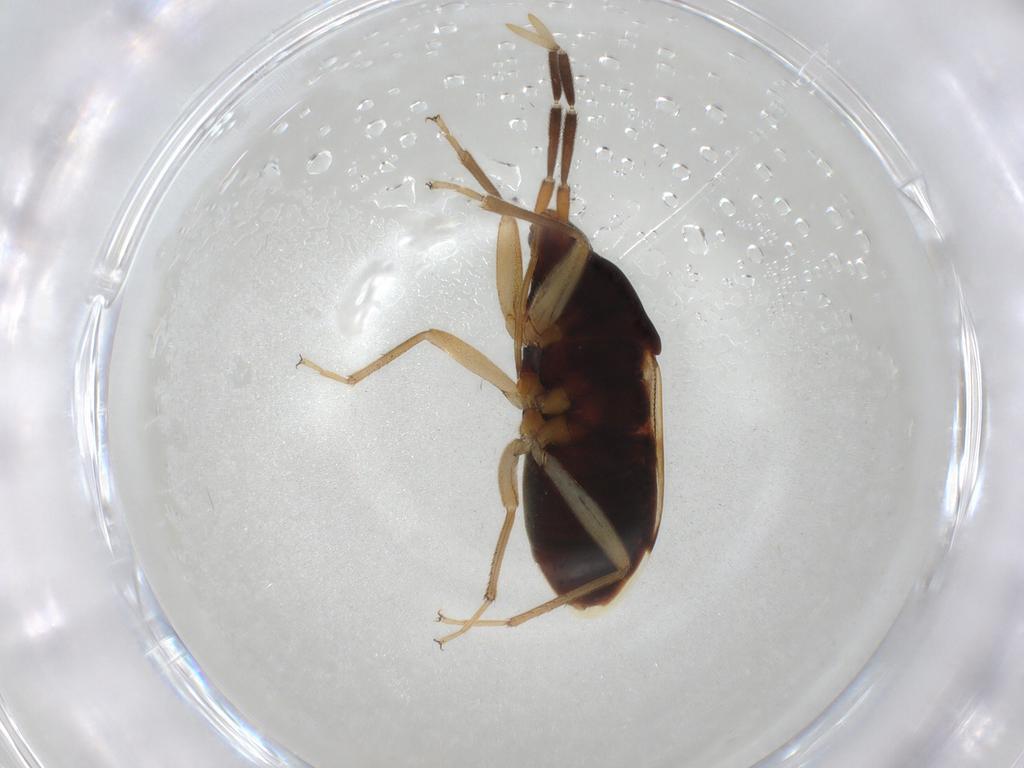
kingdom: Animalia
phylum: Arthropoda
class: Insecta
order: Hemiptera
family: Rhyparochromidae
